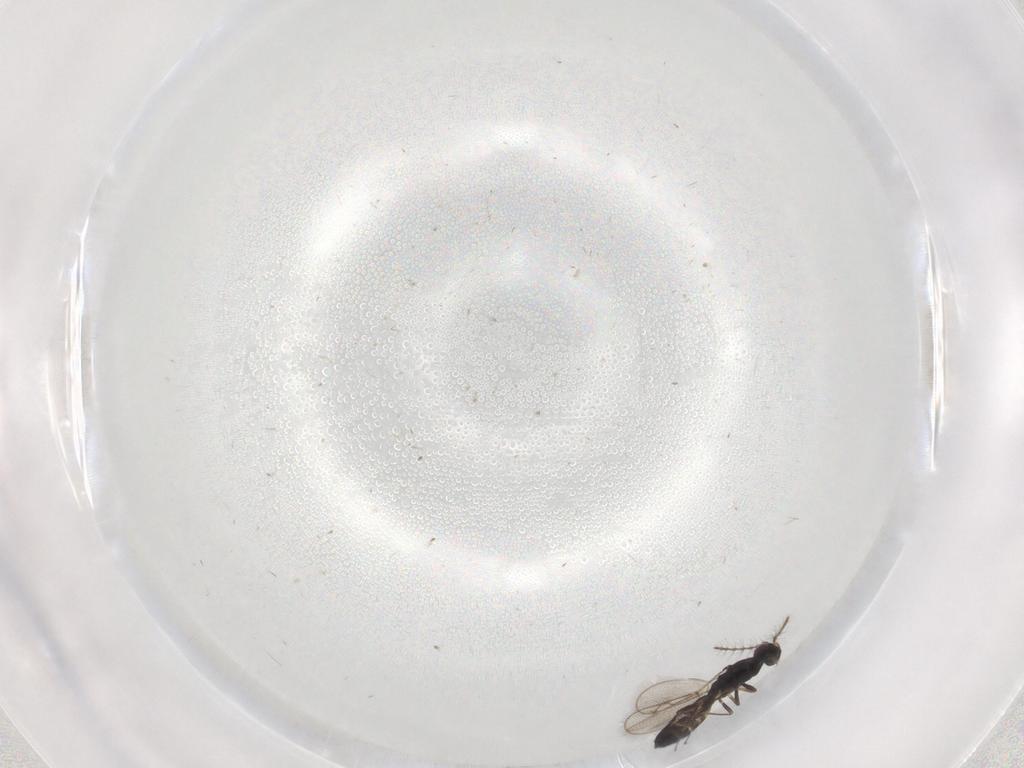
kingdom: Animalia
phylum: Arthropoda
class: Insecta
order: Hymenoptera
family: Pteromalidae
